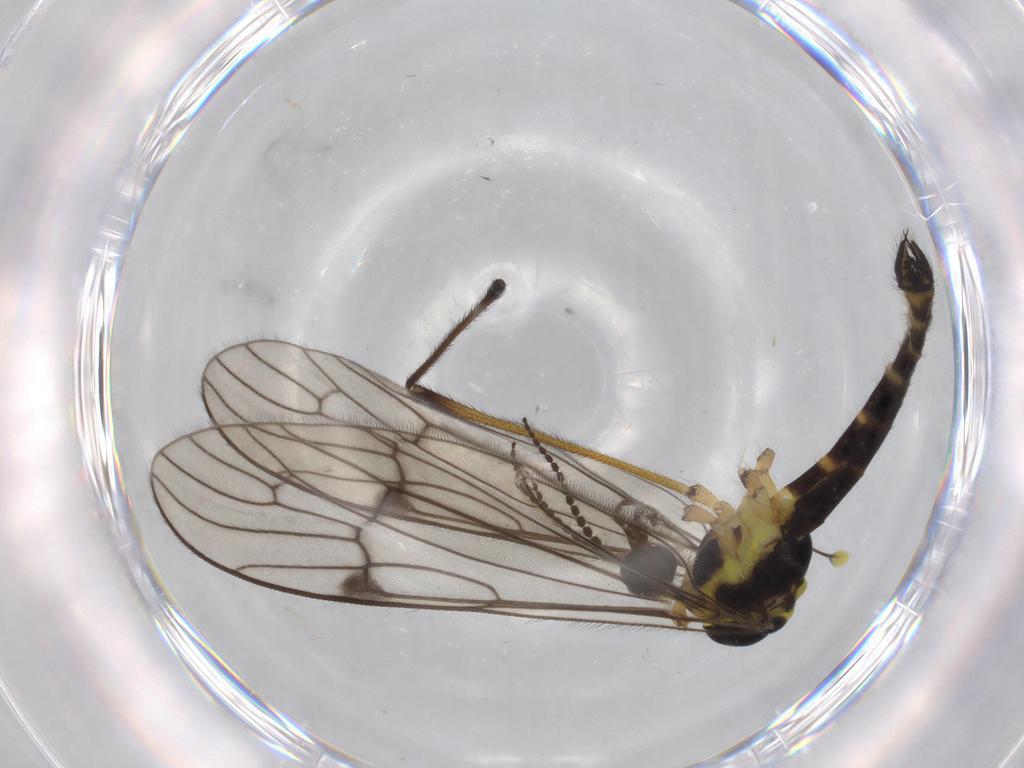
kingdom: Animalia
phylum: Arthropoda
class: Insecta
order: Diptera
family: Limoniidae
